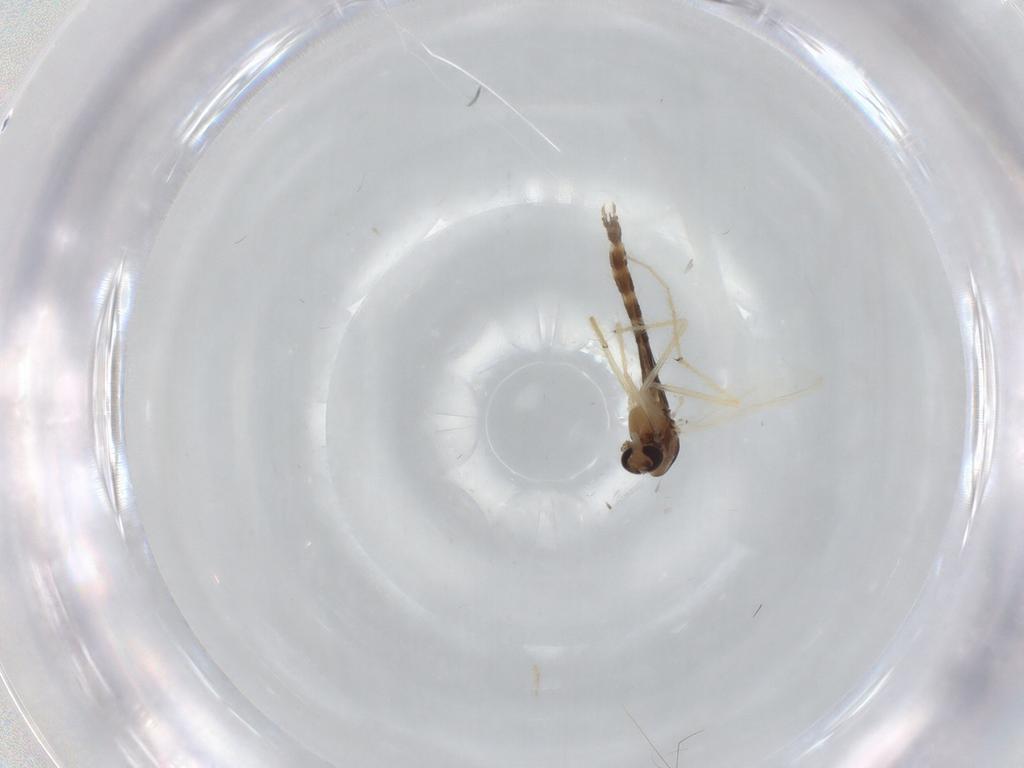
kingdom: Animalia
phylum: Arthropoda
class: Insecta
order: Diptera
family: Chironomidae
